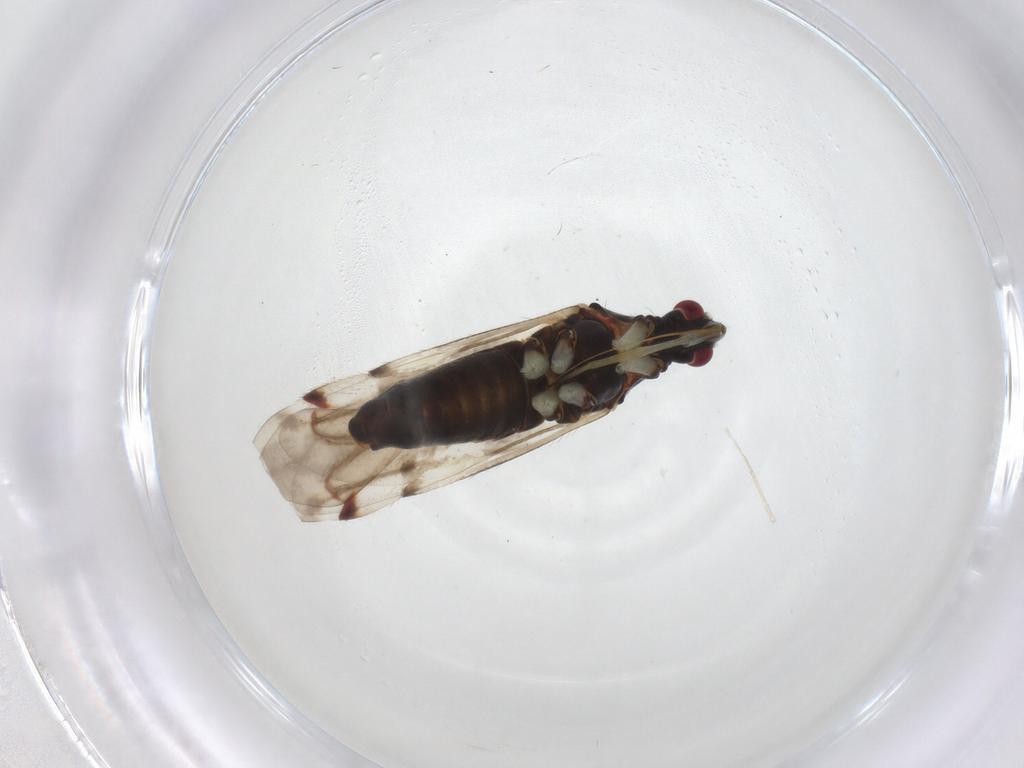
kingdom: Animalia
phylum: Arthropoda
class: Insecta
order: Hemiptera
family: Miridae
